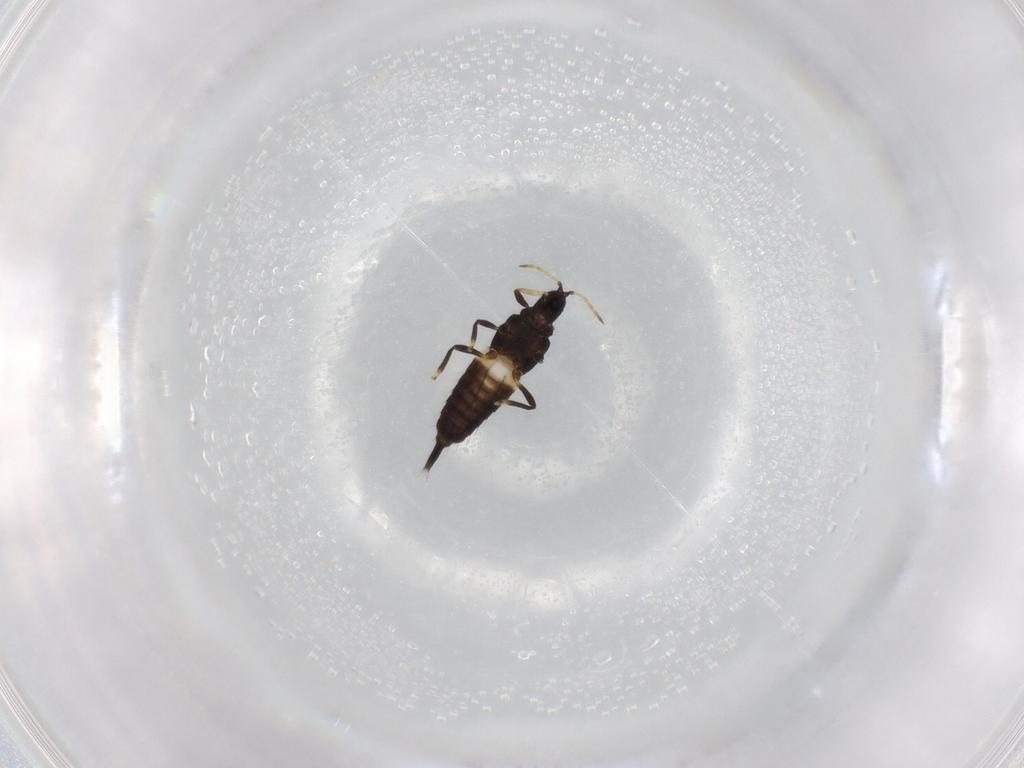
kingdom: Animalia
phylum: Arthropoda
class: Insecta
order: Thysanoptera
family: Phlaeothripidae
